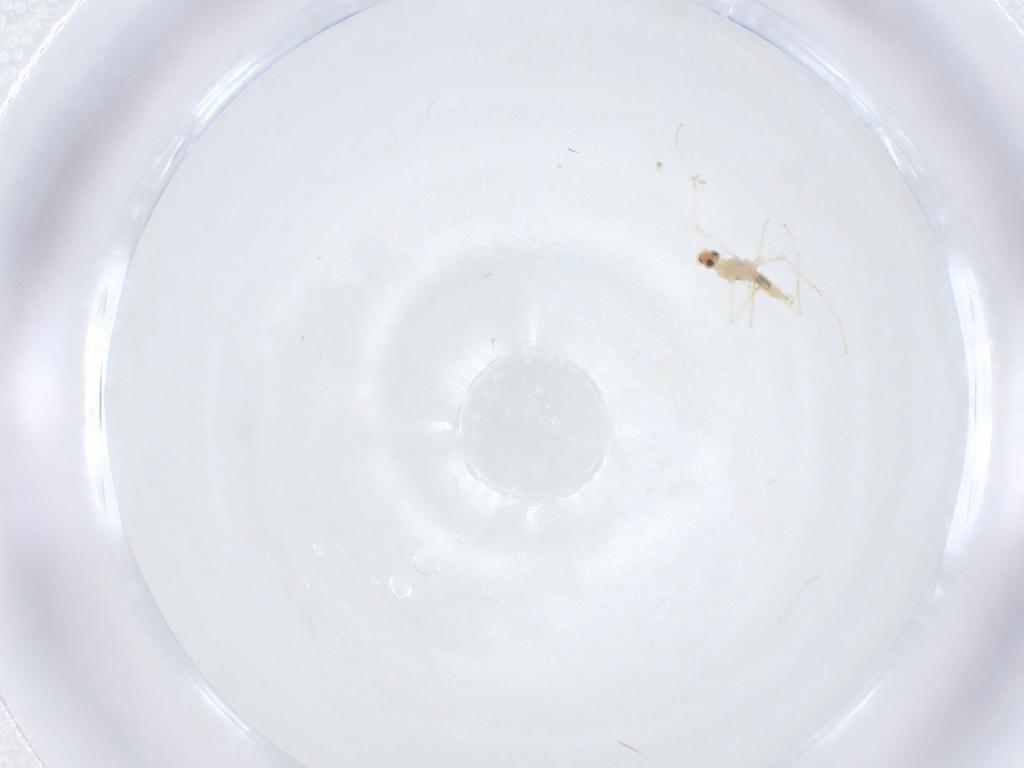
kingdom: Animalia
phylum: Arthropoda
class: Insecta
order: Diptera
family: Cecidomyiidae
